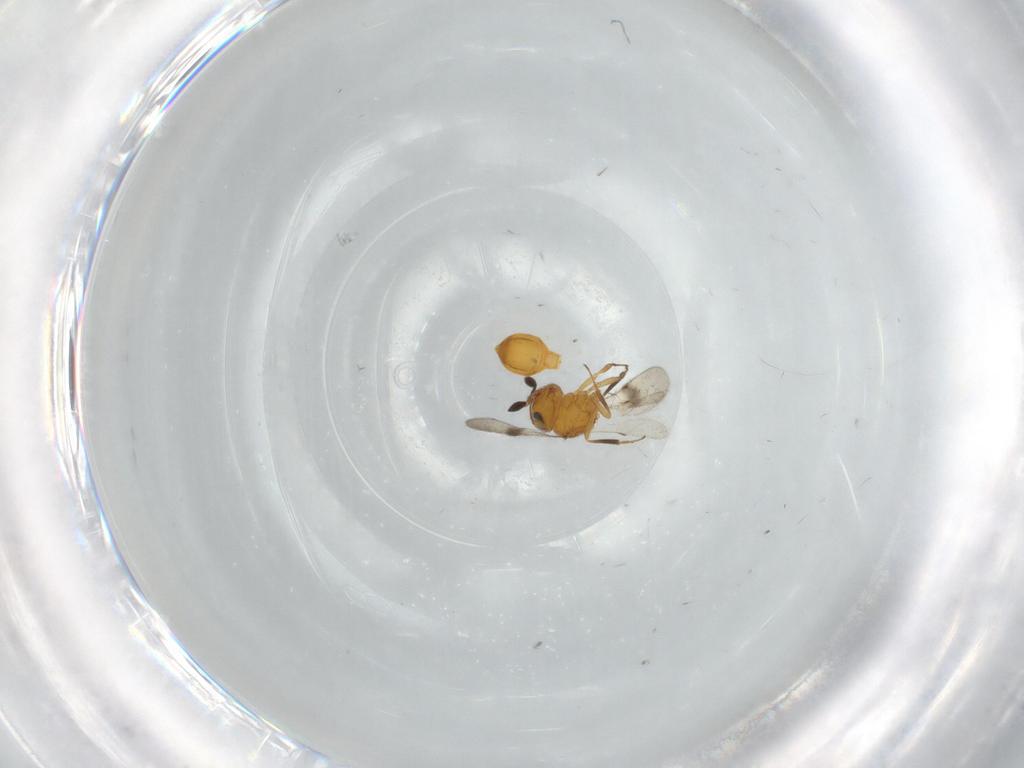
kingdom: Animalia
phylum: Arthropoda
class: Insecta
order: Hymenoptera
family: Scelionidae
